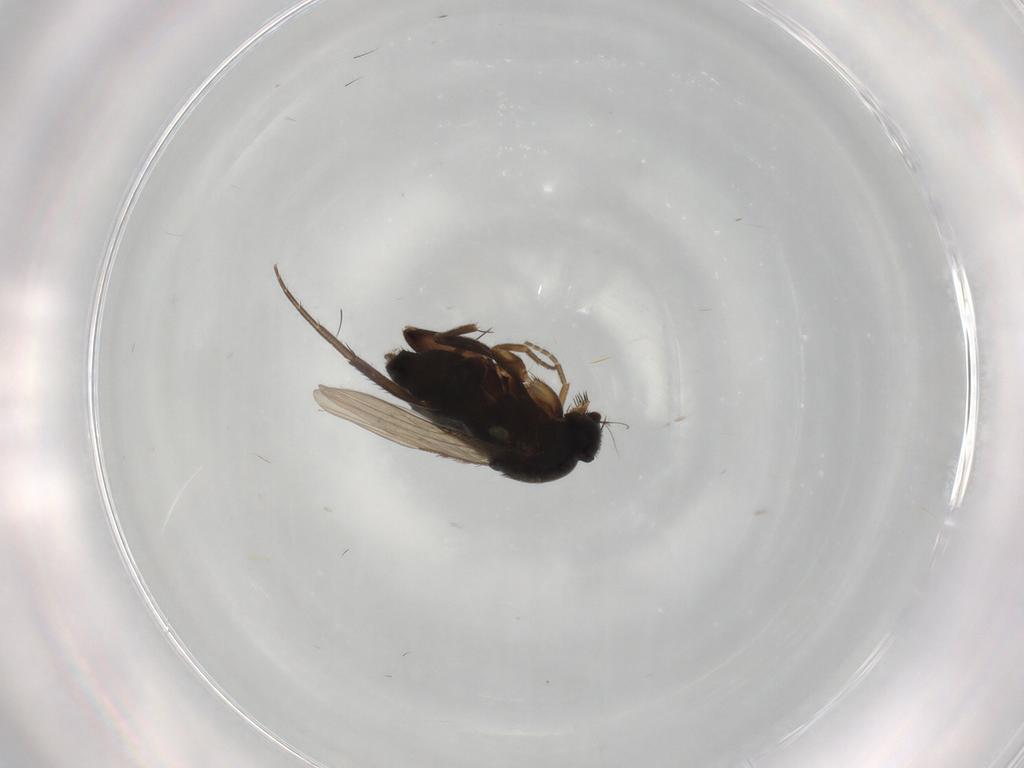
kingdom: Animalia
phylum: Arthropoda
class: Insecta
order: Diptera
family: Phoridae
